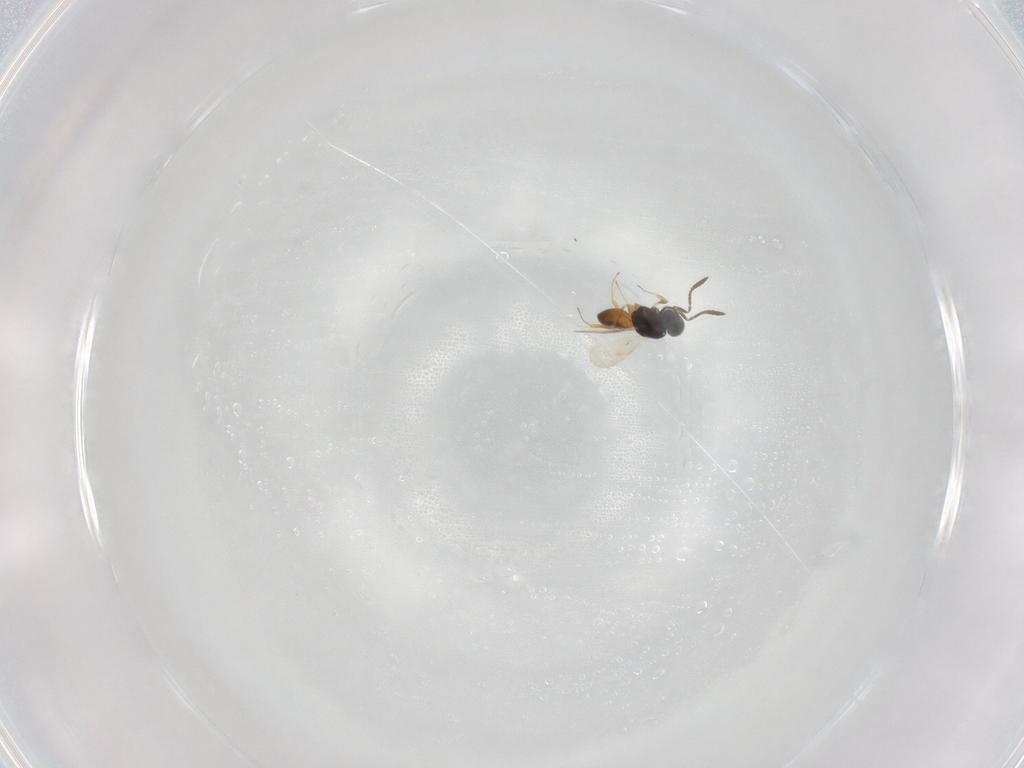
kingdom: Animalia
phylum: Arthropoda
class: Insecta
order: Hymenoptera
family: Scelionidae
